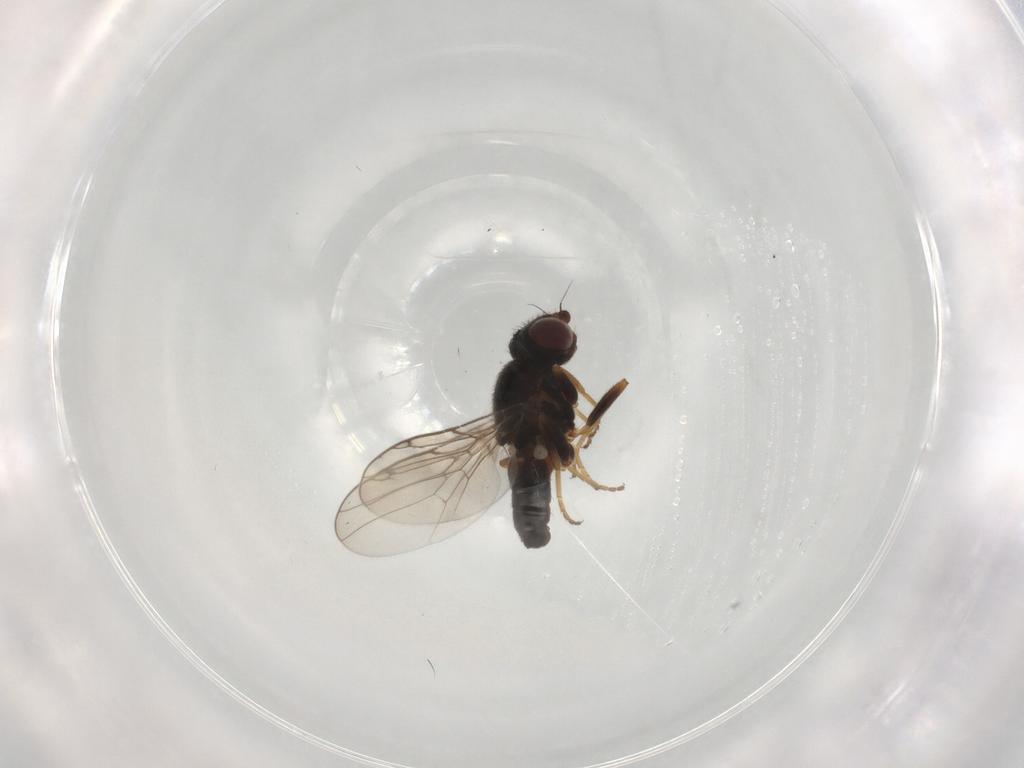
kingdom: Animalia
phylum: Arthropoda
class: Insecta
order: Diptera
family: Chloropidae
